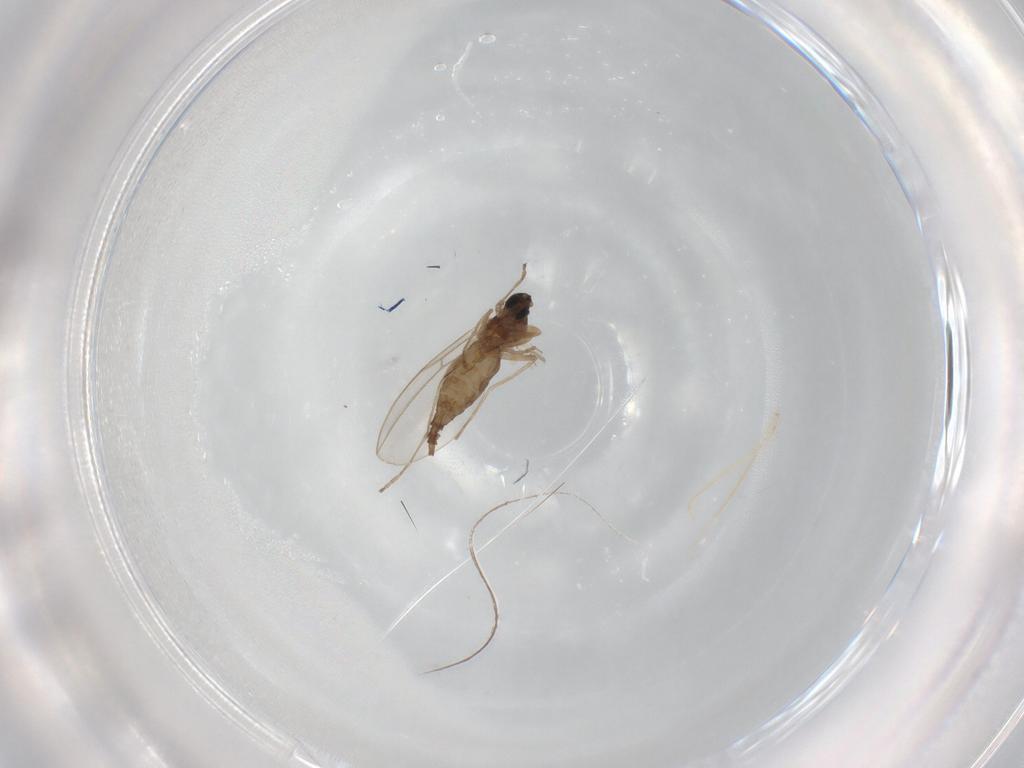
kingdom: Animalia
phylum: Arthropoda
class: Insecta
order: Diptera
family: Cecidomyiidae
